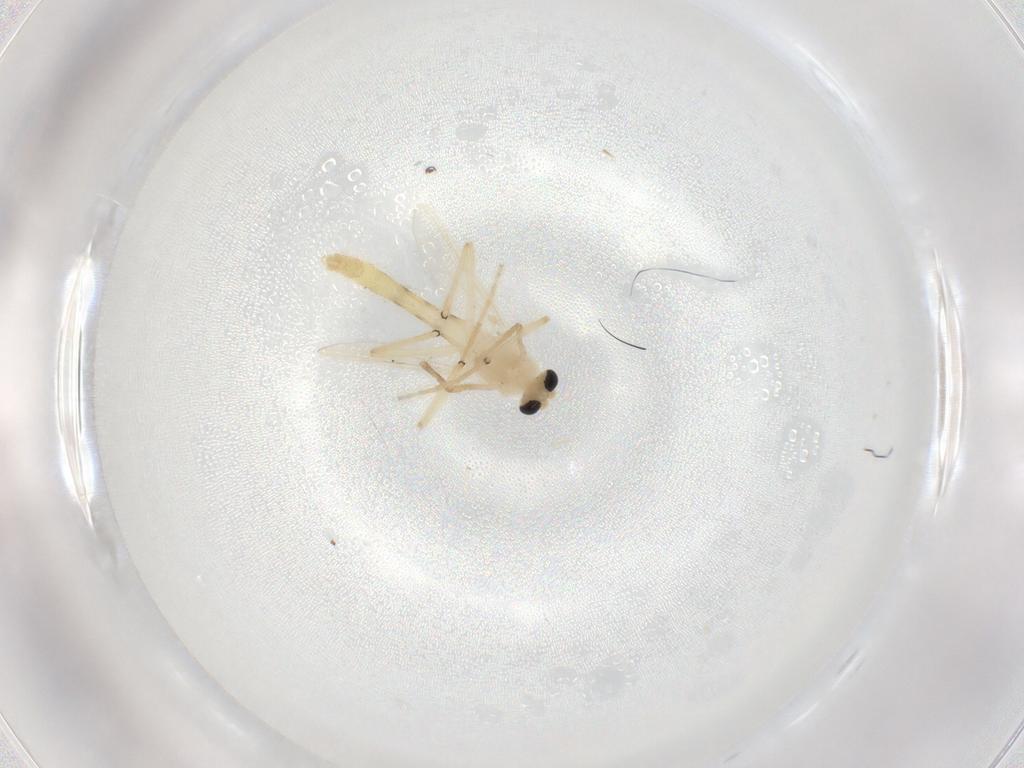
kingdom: Animalia
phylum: Arthropoda
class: Insecta
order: Diptera
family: Chironomidae
